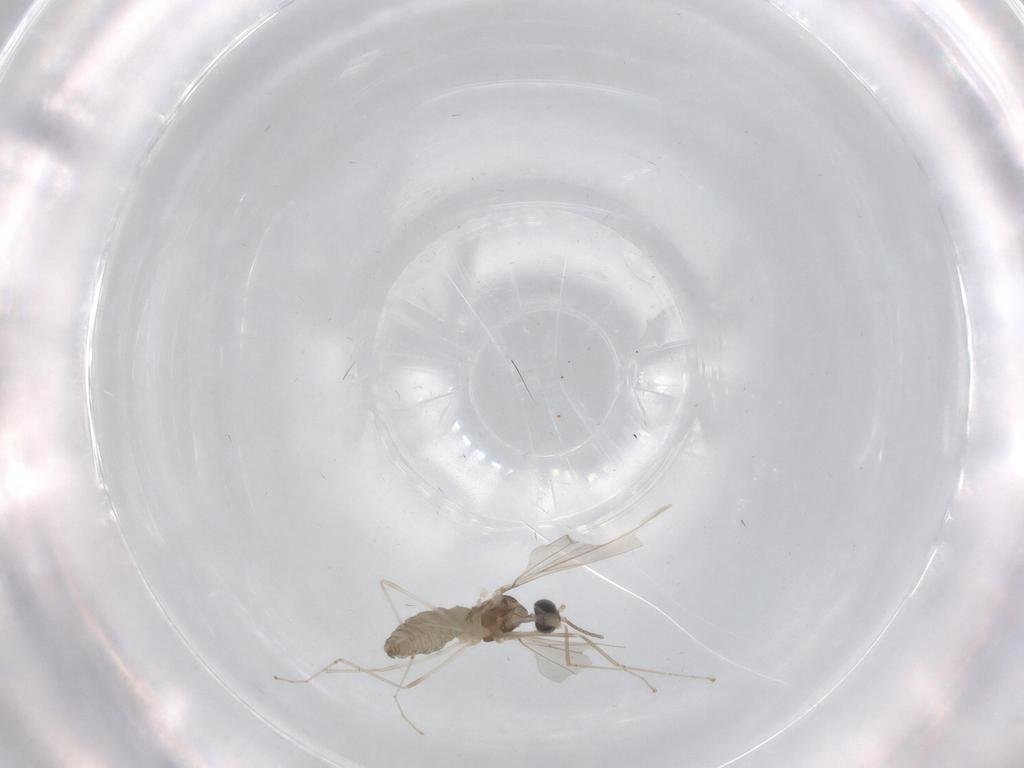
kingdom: Animalia
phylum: Arthropoda
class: Insecta
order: Diptera
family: Cecidomyiidae
